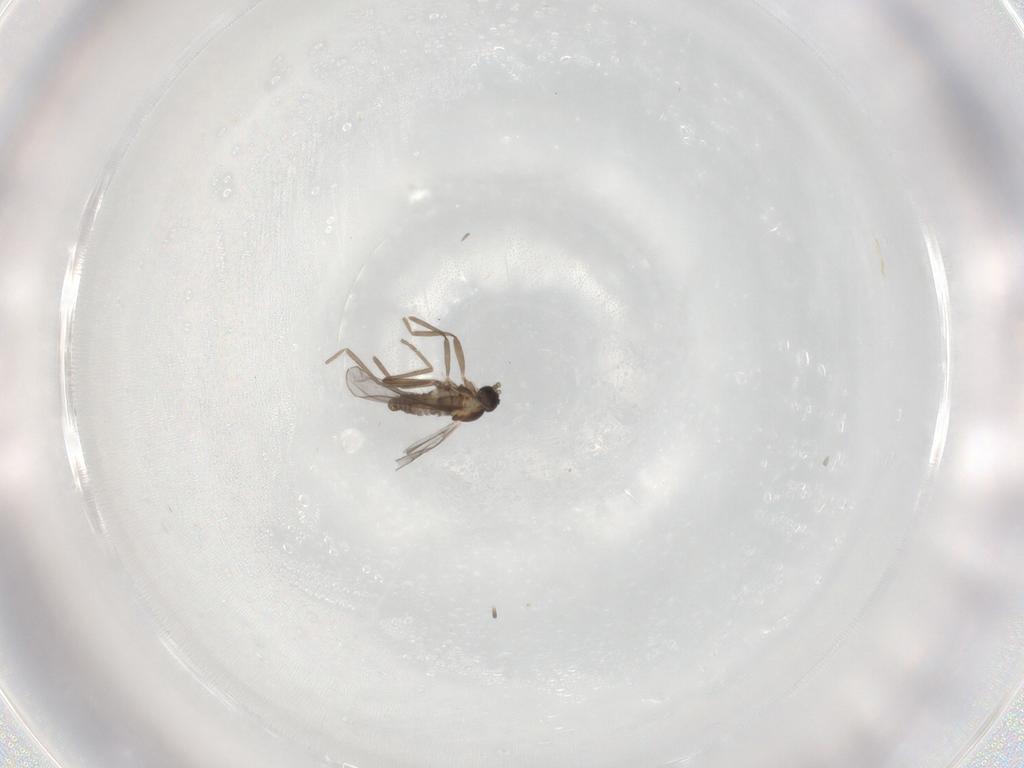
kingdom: Animalia
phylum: Arthropoda
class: Insecta
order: Diptera
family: Cecidomyiidae
